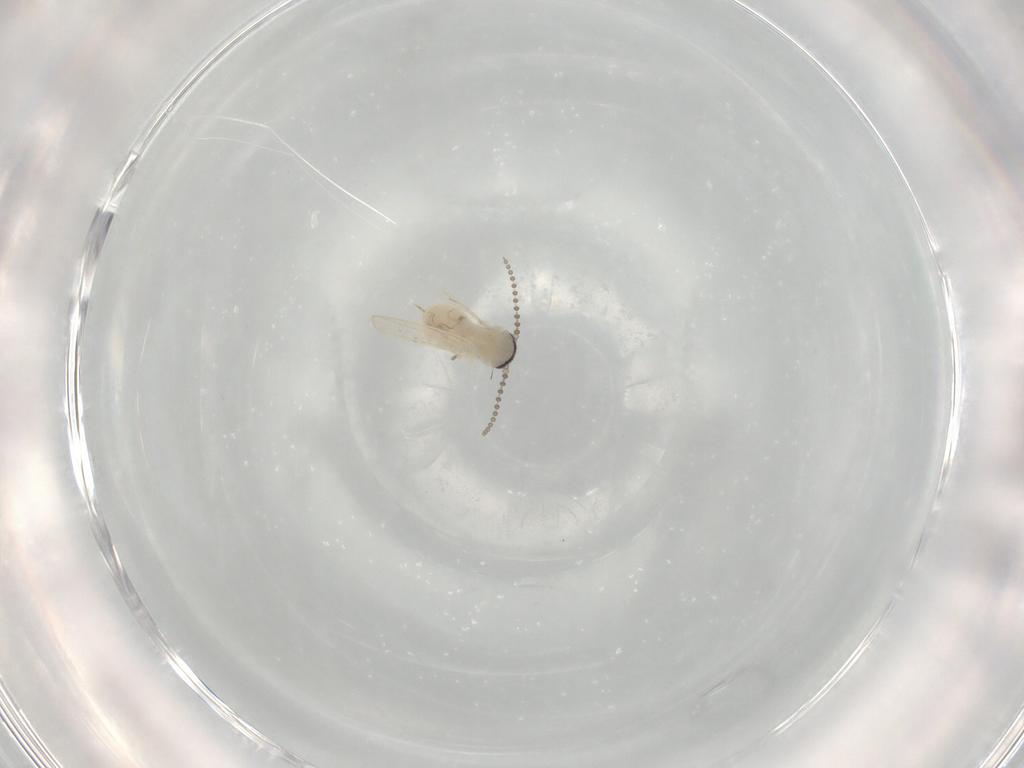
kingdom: Animalia
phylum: Arthropoda
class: Insecta
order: Diptera
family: Psychodidae
